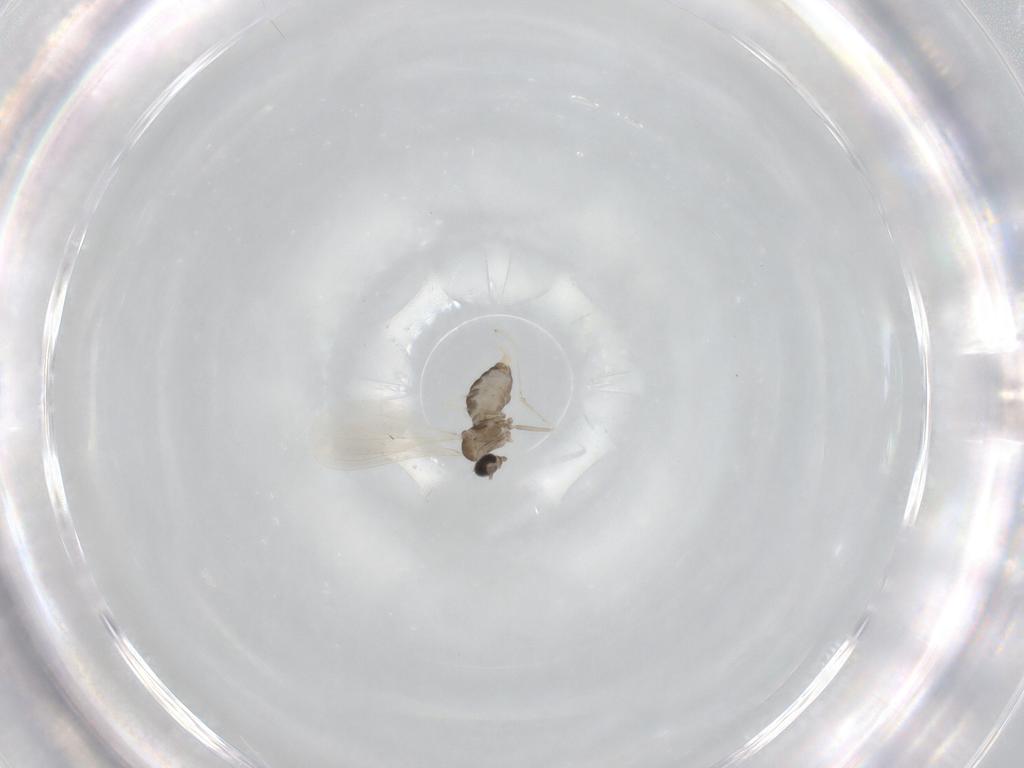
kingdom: Animalia
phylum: Arthropoda
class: Insecta
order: Diptera
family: Cecidomyiidae
